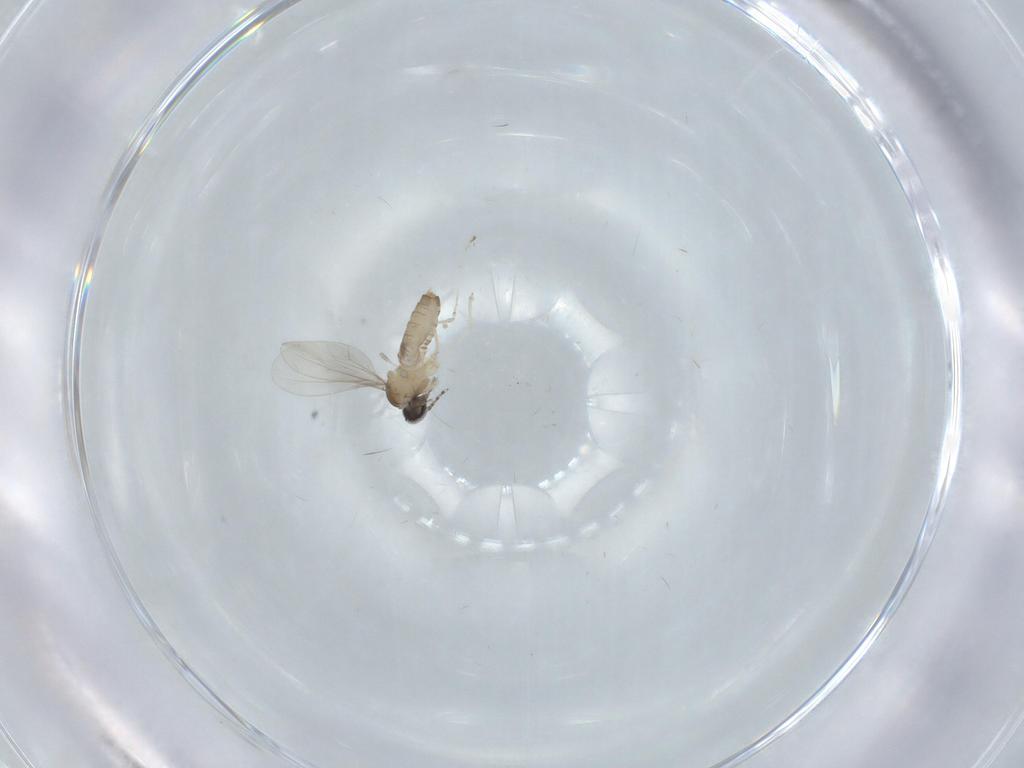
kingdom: Animalia
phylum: Arthropoda
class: Insecta
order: Diptera
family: Cecidomyiidae
